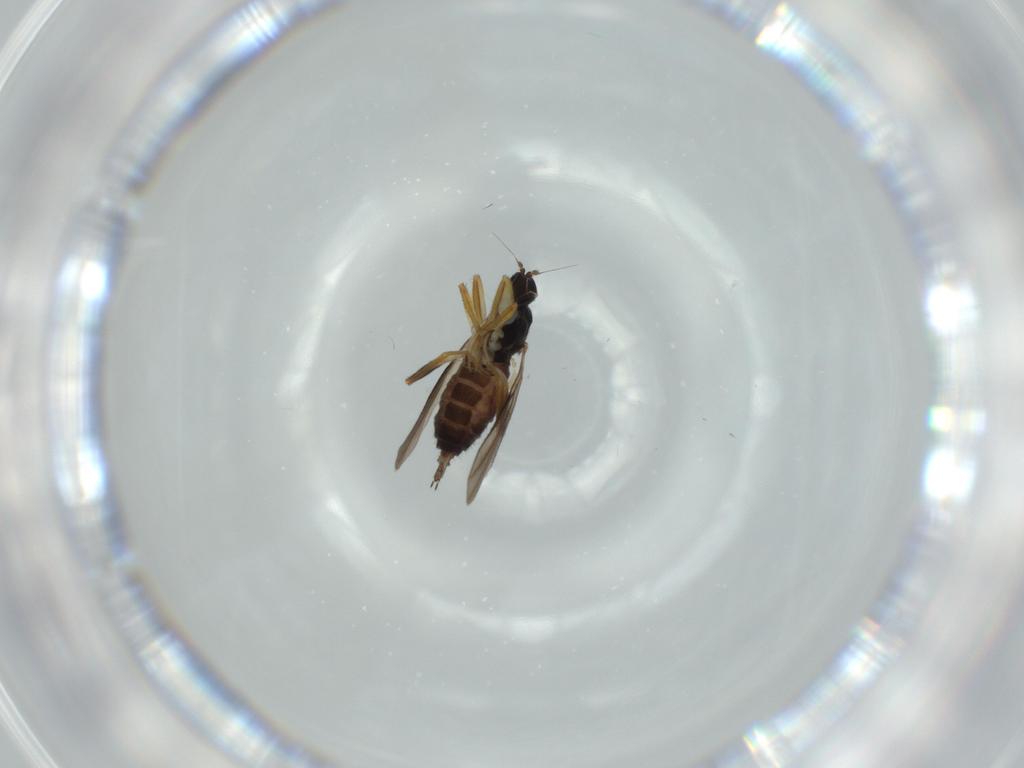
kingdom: Animalia
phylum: Arthropoda
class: Insecta
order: Diptera
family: Hybotidae
